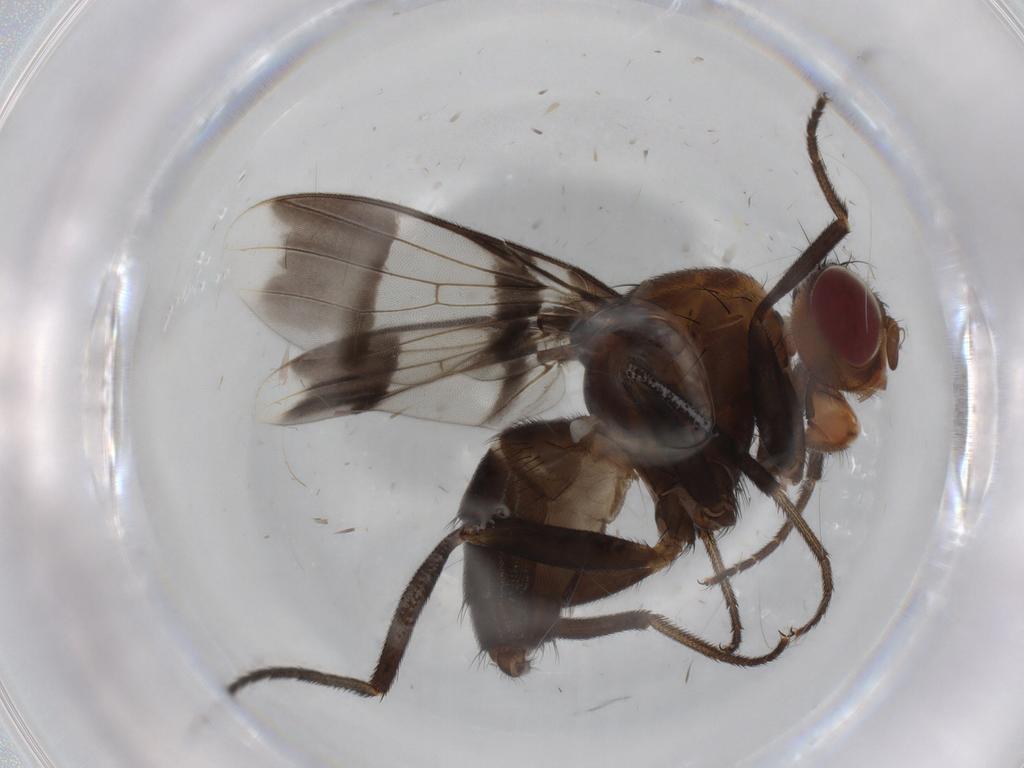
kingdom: Animalia
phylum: Arthropoda
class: Insecta
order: Diptera
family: Richardiidae
